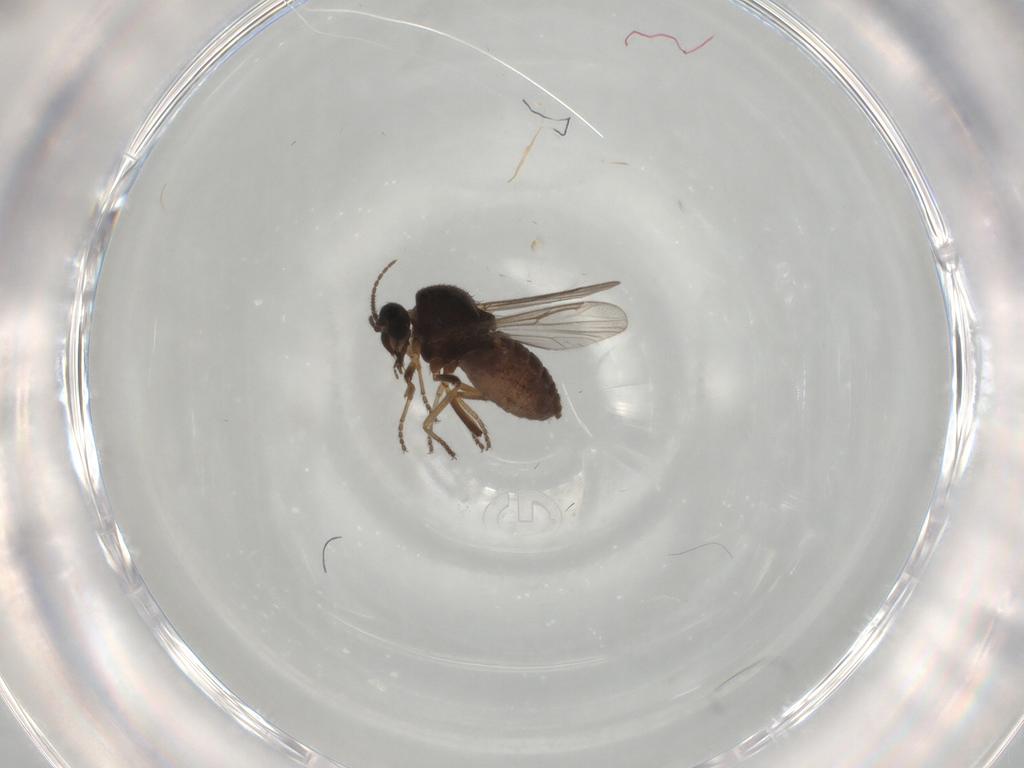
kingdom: Animalia
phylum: Arthropoda
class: Insecta
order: Diptera
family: Ceratopogonidae
